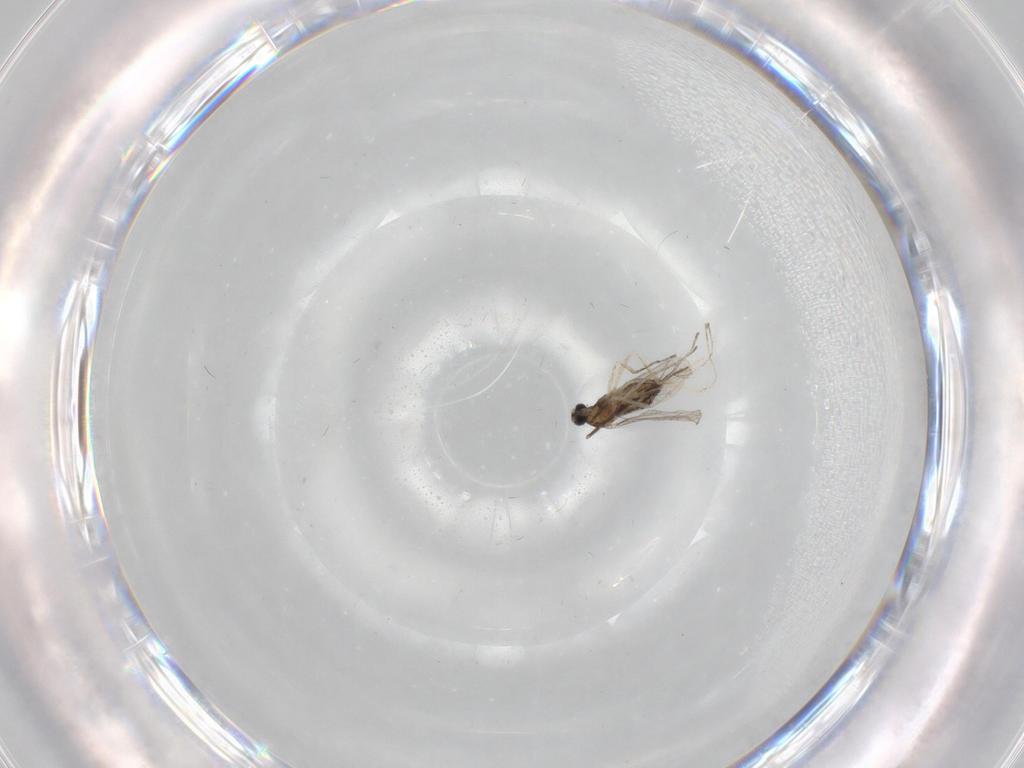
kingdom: Animalia
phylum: Arthropoda
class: Insecta
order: Diptera
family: Cecidomyiidae
